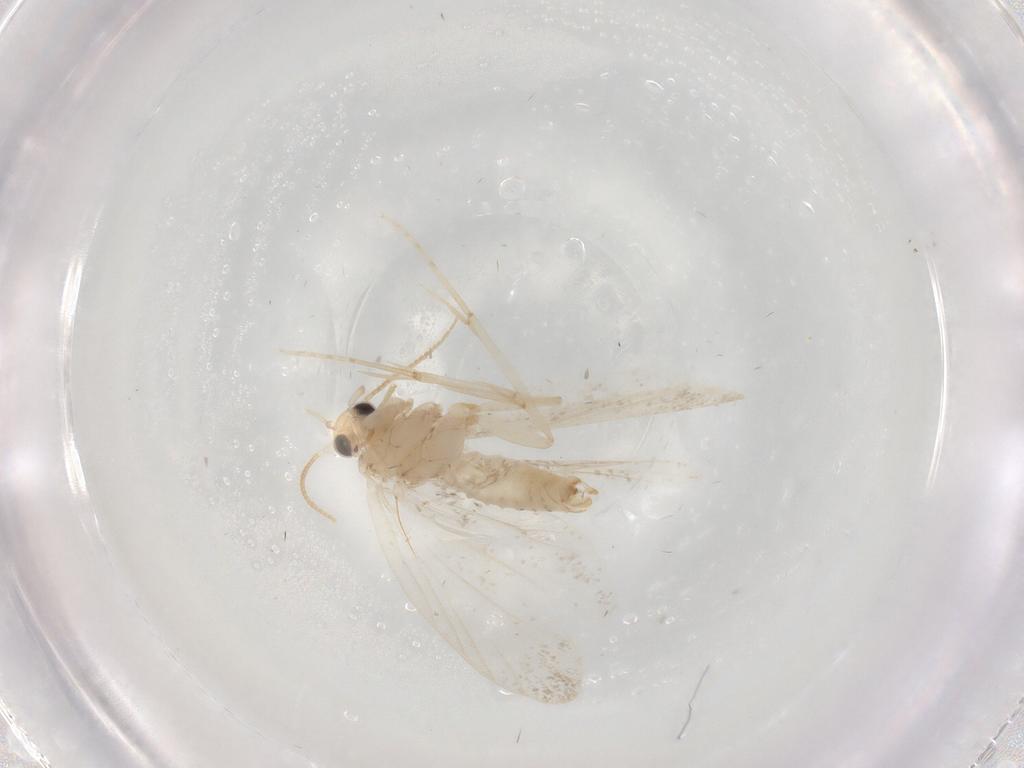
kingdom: Animalia
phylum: Arthropoda
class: Insecta
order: Lepidoptera
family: Psychidae
